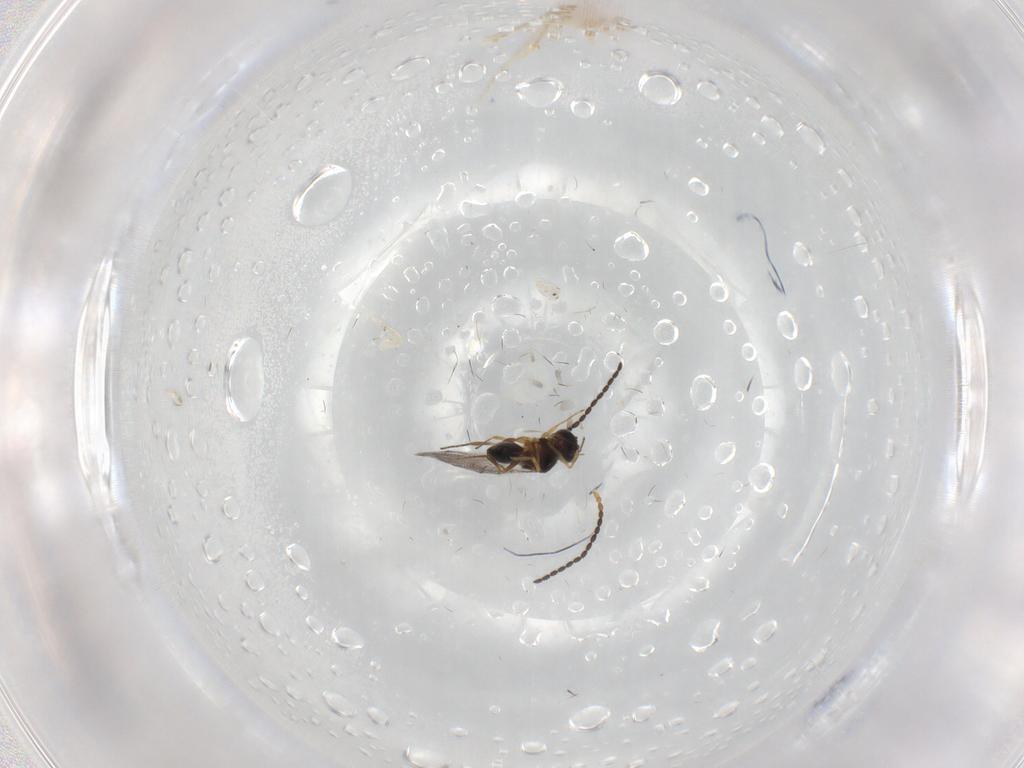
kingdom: Animalia
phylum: Arthropoda
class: Insecta
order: Hymenoptera
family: Figitidae
